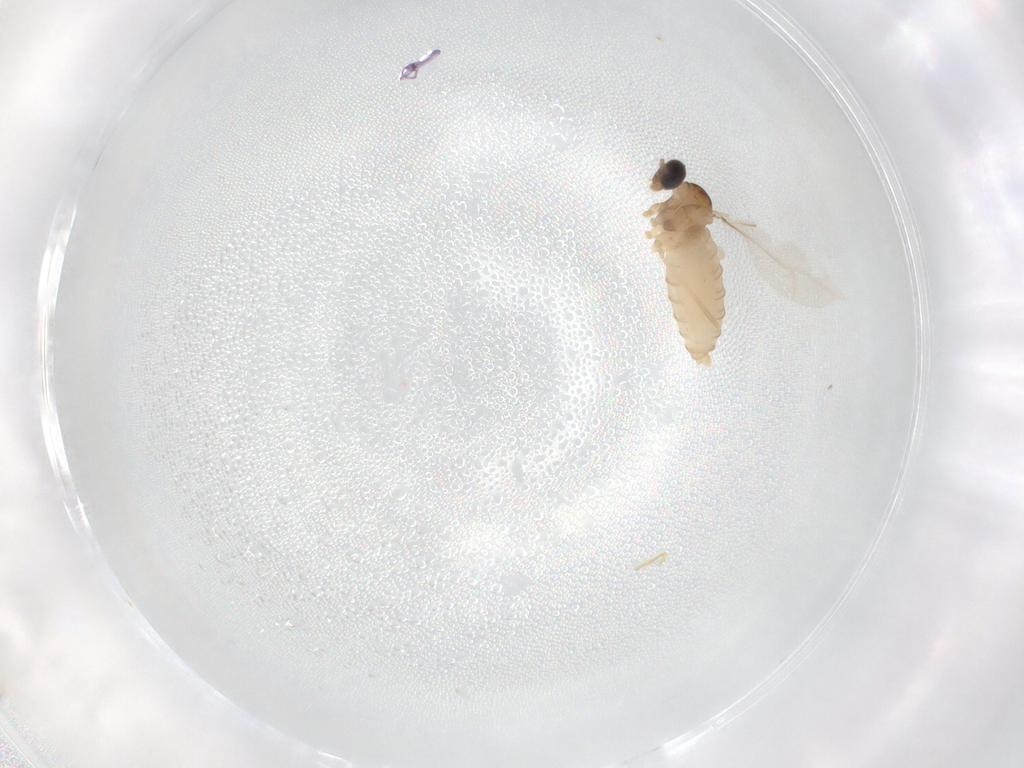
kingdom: Animalia
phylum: Arthropoda
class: Insecta
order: Diptera
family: Cecidomyiidae
